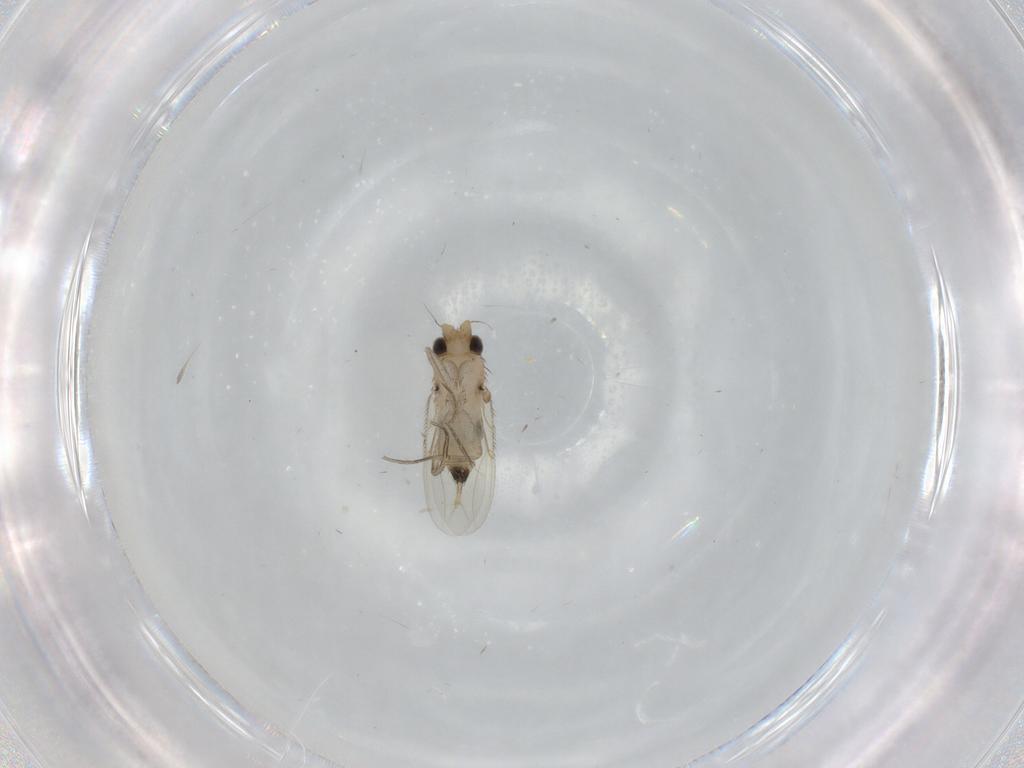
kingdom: Animalia
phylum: Arthropoda
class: Insecta
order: Diptera
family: Phoridae
